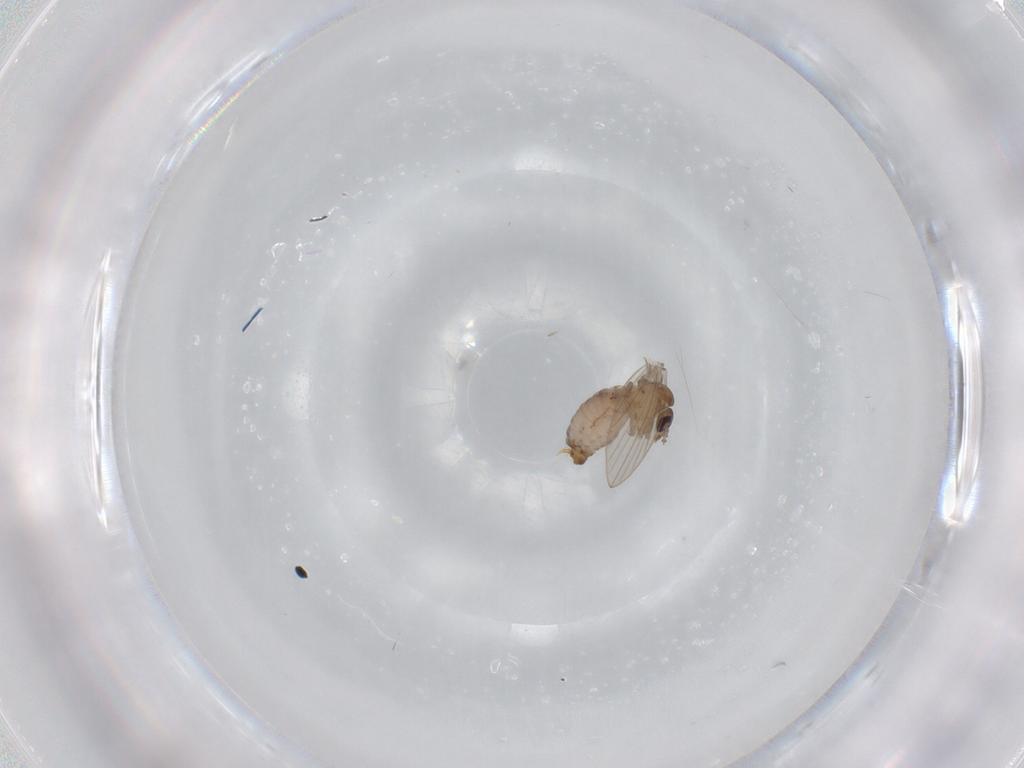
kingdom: Animalia
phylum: Arthropoda
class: Insecta
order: Diptera
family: Psychodidae
